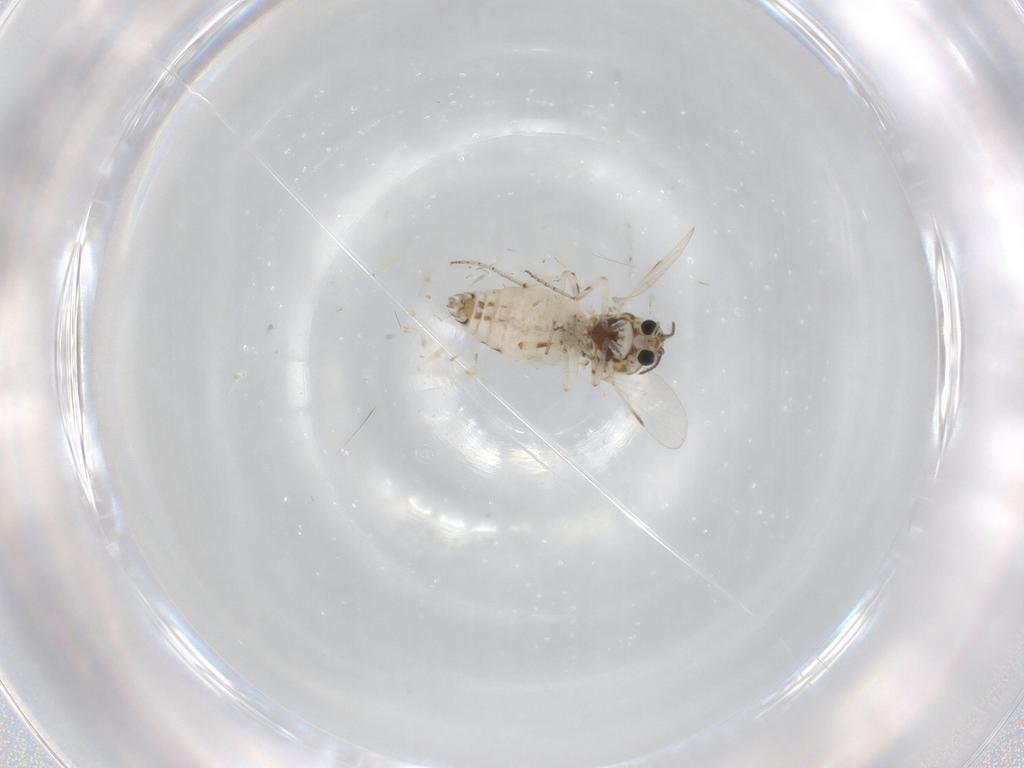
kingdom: Animalia
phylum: Arthropoda
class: Insecta
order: Diptera
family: Ceratopogonidae
